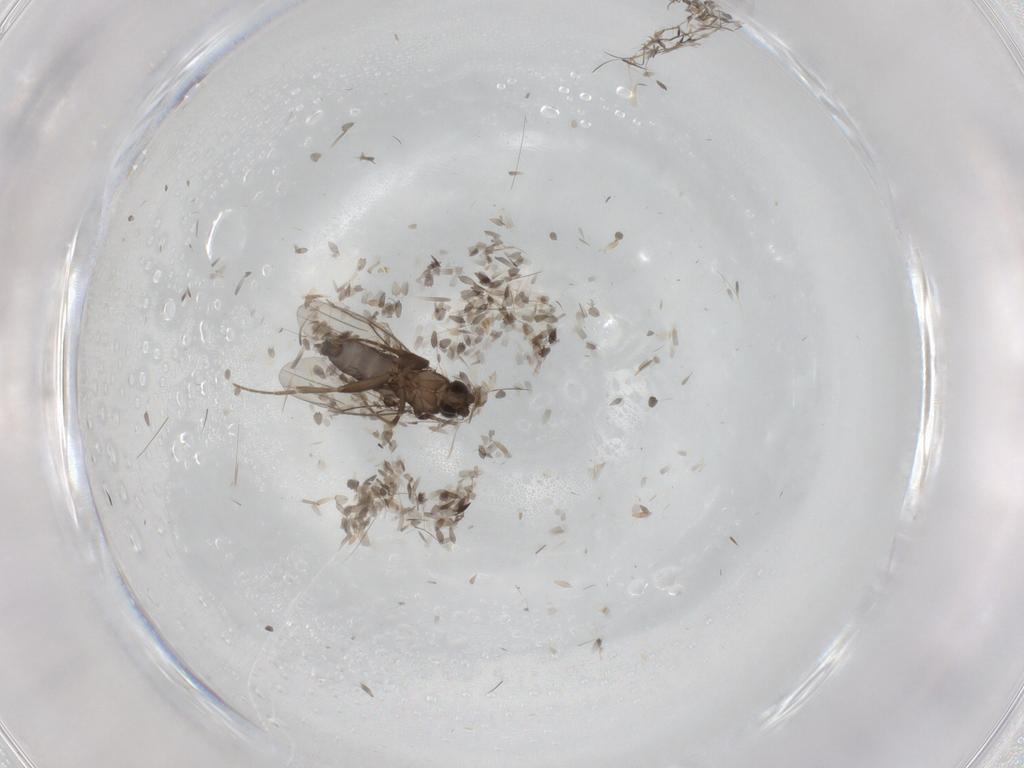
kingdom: Animalia
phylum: Arthropoda
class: Insecta
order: Diptera
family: Phoridae
